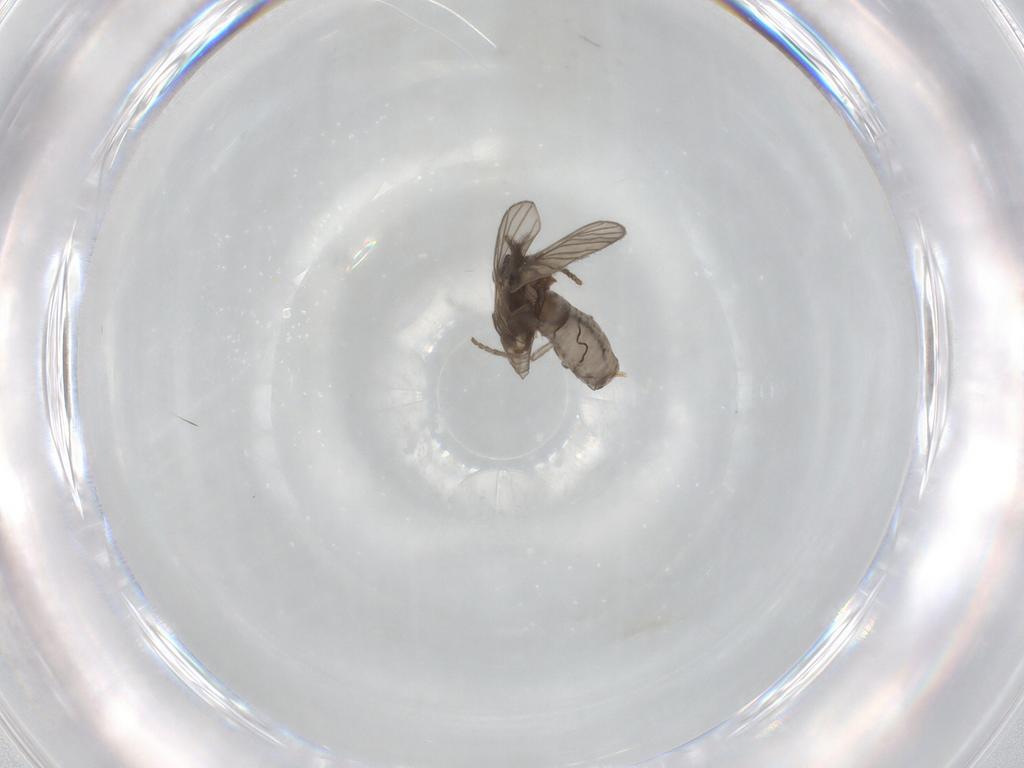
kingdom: Animalia
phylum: Arthropoda
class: Insecta
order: Diptera
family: Psychodidae
